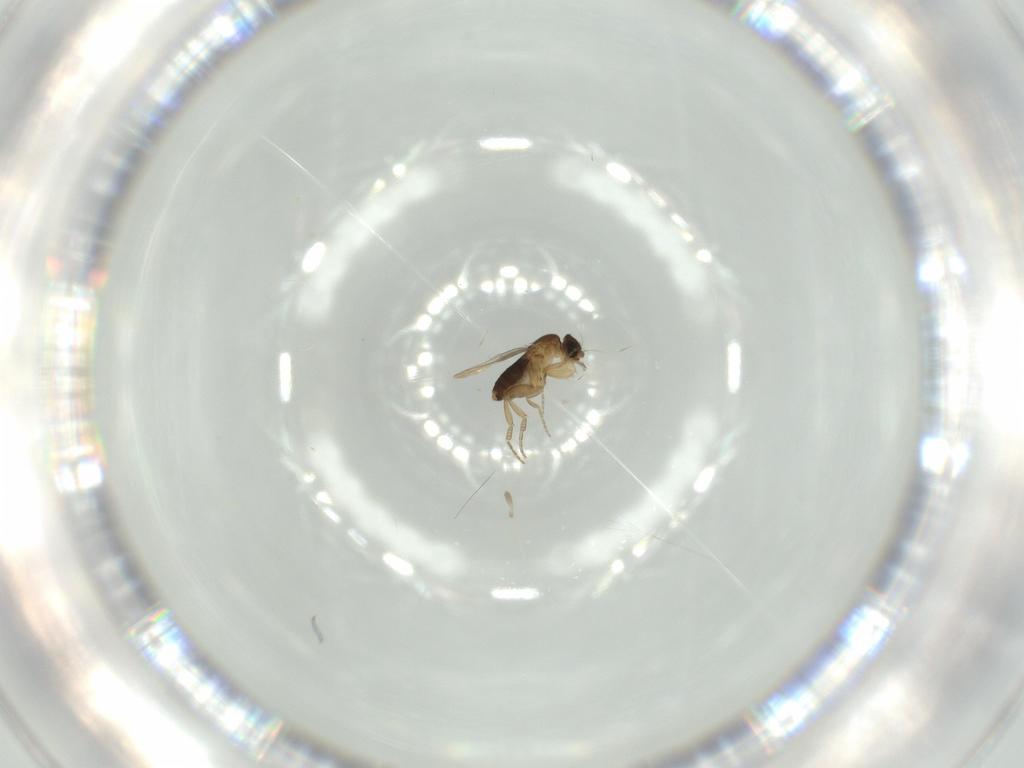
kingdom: Animalia
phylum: Arthropoda
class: Insecta
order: Diptera
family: Phoridae
